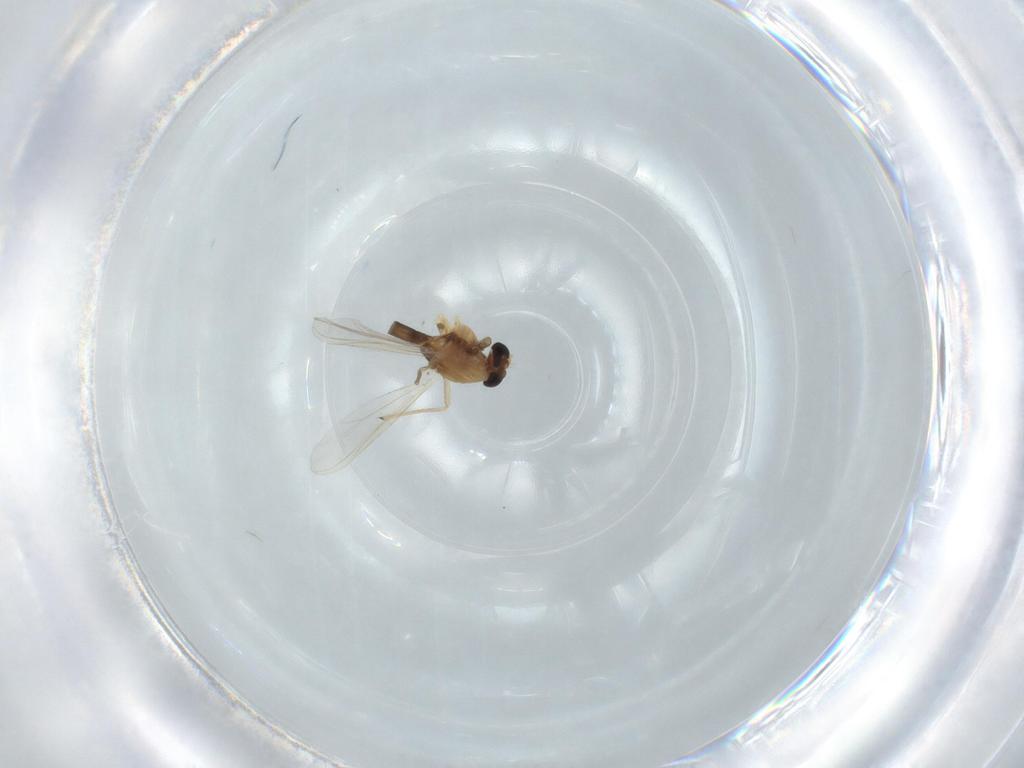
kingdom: Animalia
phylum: Arthropoda
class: Insecta
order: Diptera
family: Chironomidae
